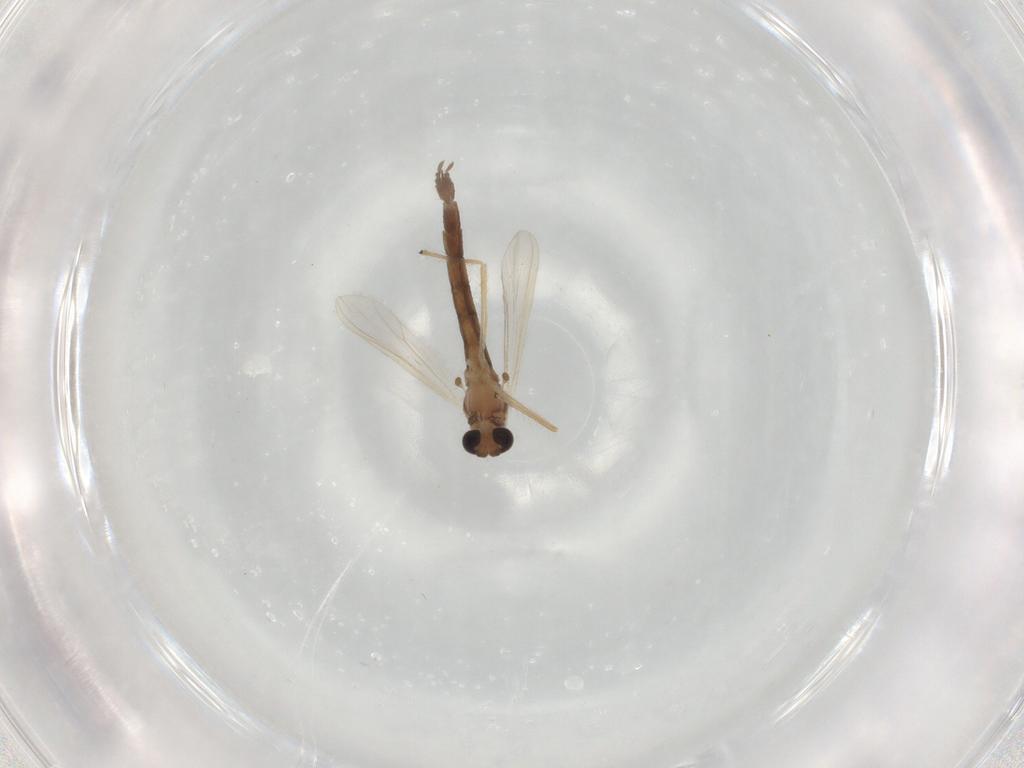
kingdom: Animalia
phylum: Arthropoda
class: Insecta
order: Diptera
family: Chironomidae
